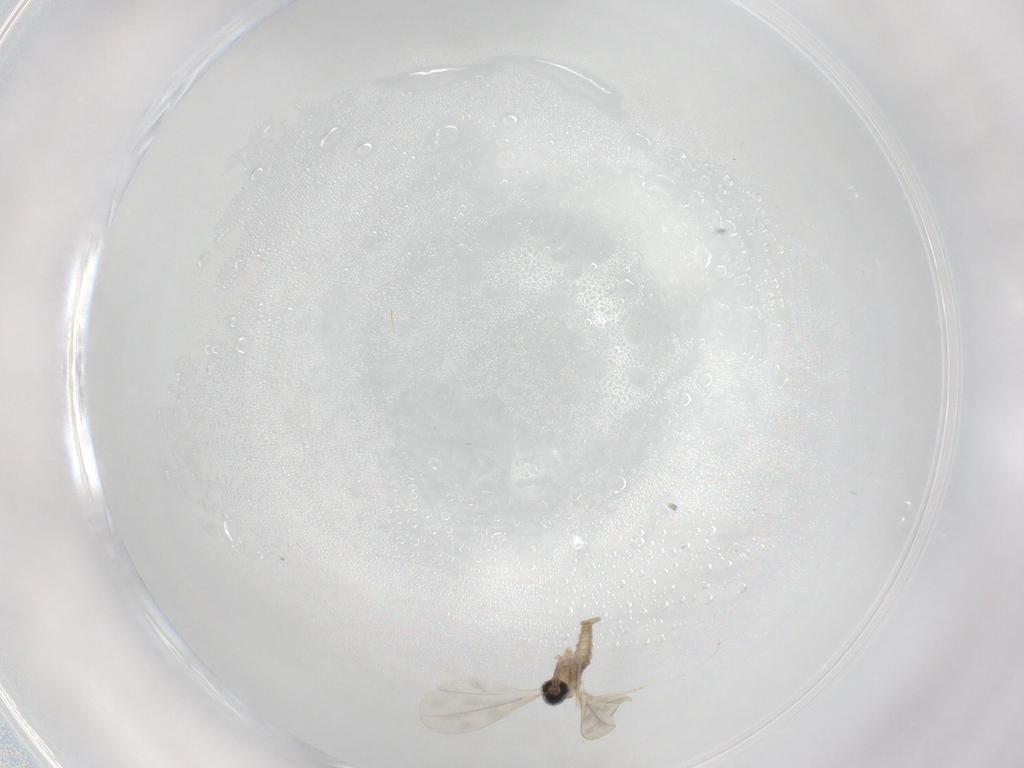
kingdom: Animalia
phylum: Arthropoda
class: Insecta
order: Diptera
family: Cecidomyiidae
